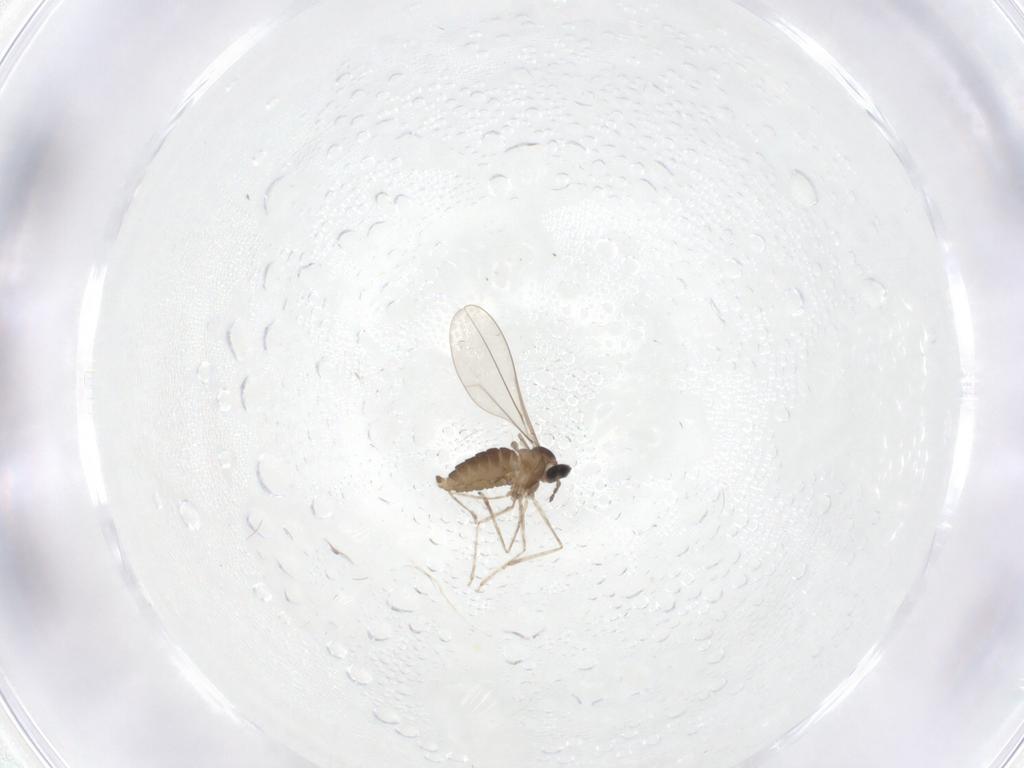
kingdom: Animalia
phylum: Arthropoda
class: Insecta
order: Diptera
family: Cecidomyiidae
